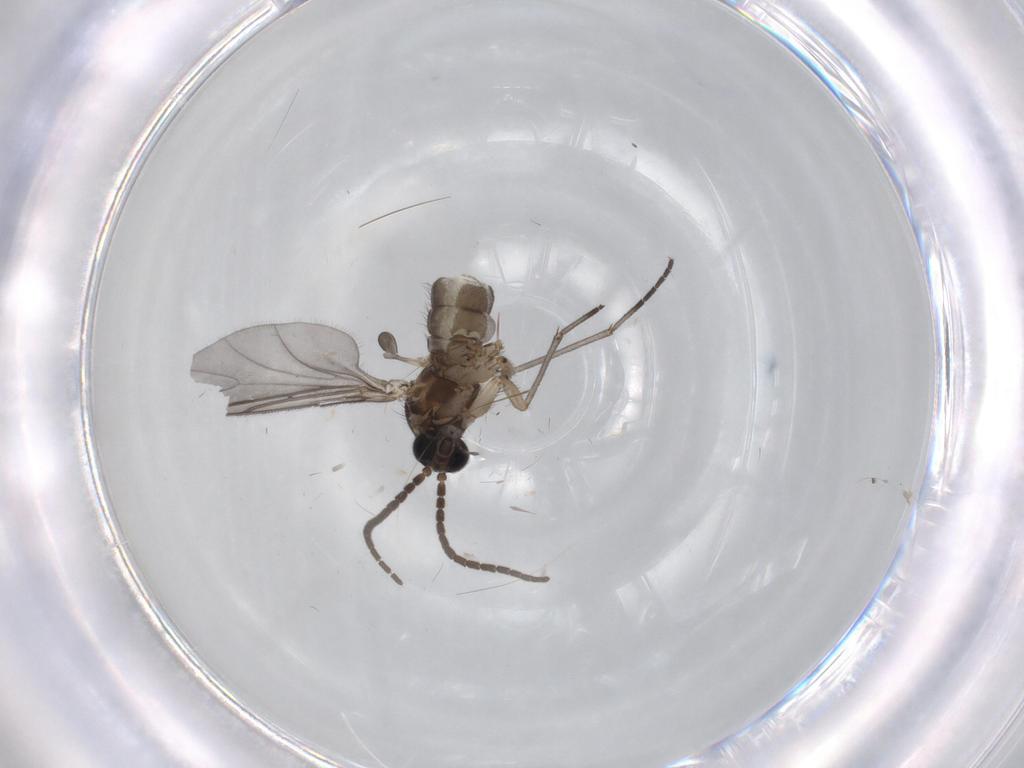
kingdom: Animalia
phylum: Arthropoda
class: Insecta
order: Diptera
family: Sciaridae
